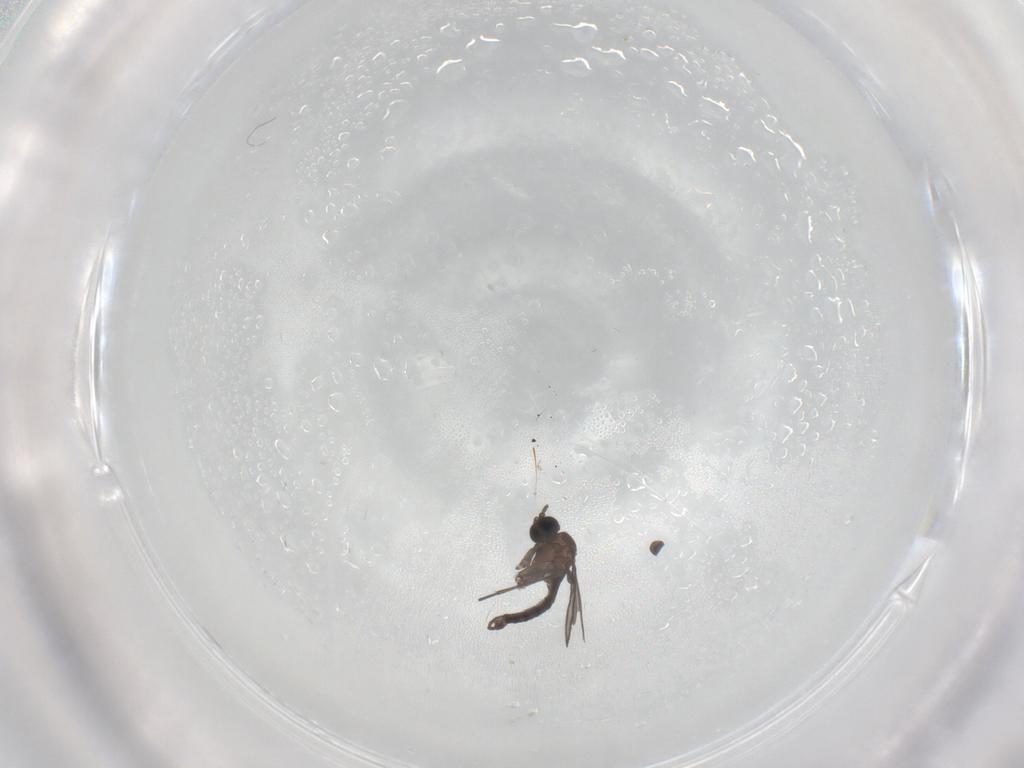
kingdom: Animalia
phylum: Arthropoda
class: Insecta
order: Diptera
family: Sciaridae
